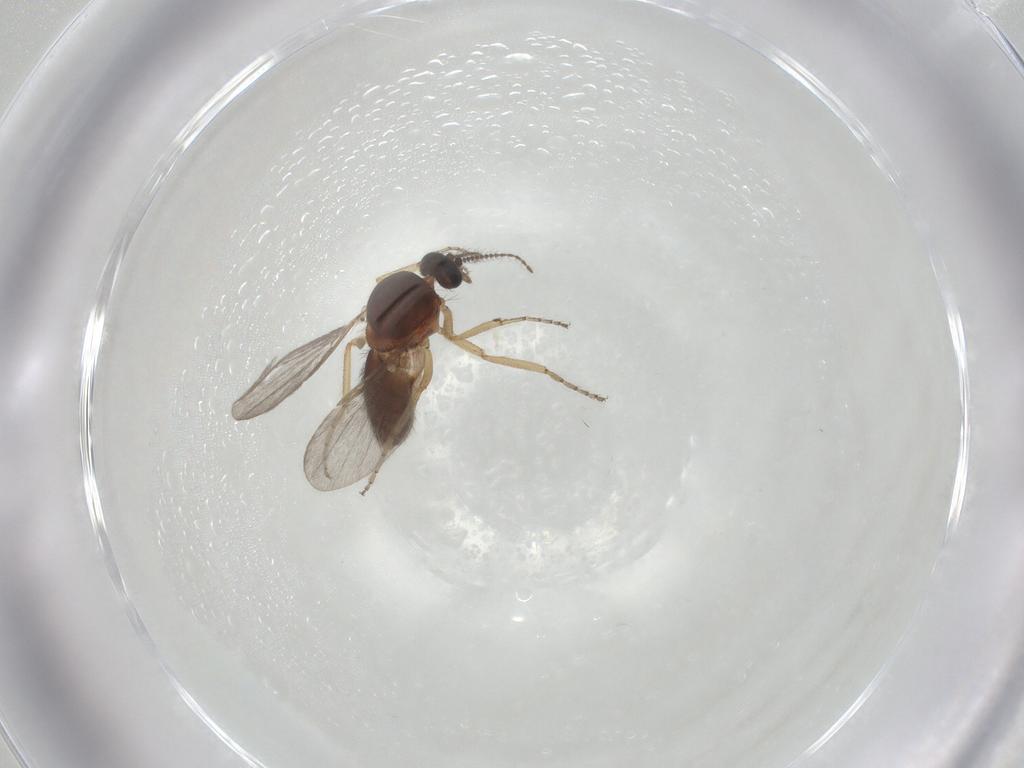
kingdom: Animalia
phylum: Arthropoda
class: Insecta
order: Diptera
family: Ceratopogonidae
